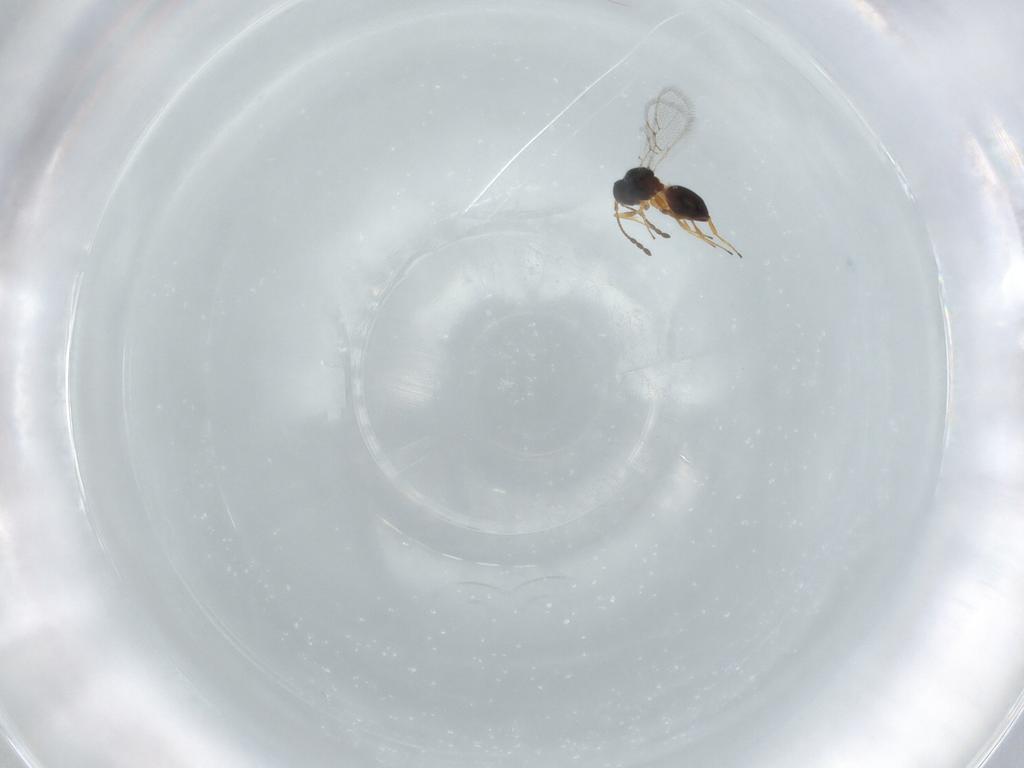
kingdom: Animalia
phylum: Arthropoda
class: Insecta
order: Hymenoptera
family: Figitidae
